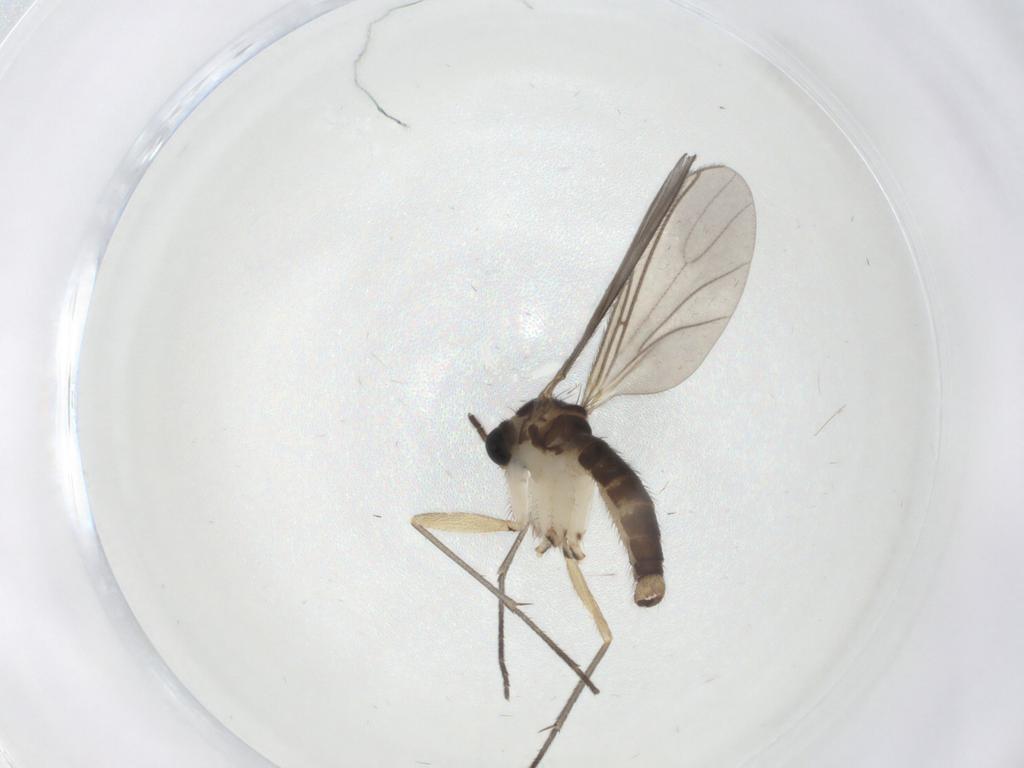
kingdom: Animalia
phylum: Arthropoda
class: Insecta
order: Diptera
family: Sciaridae
